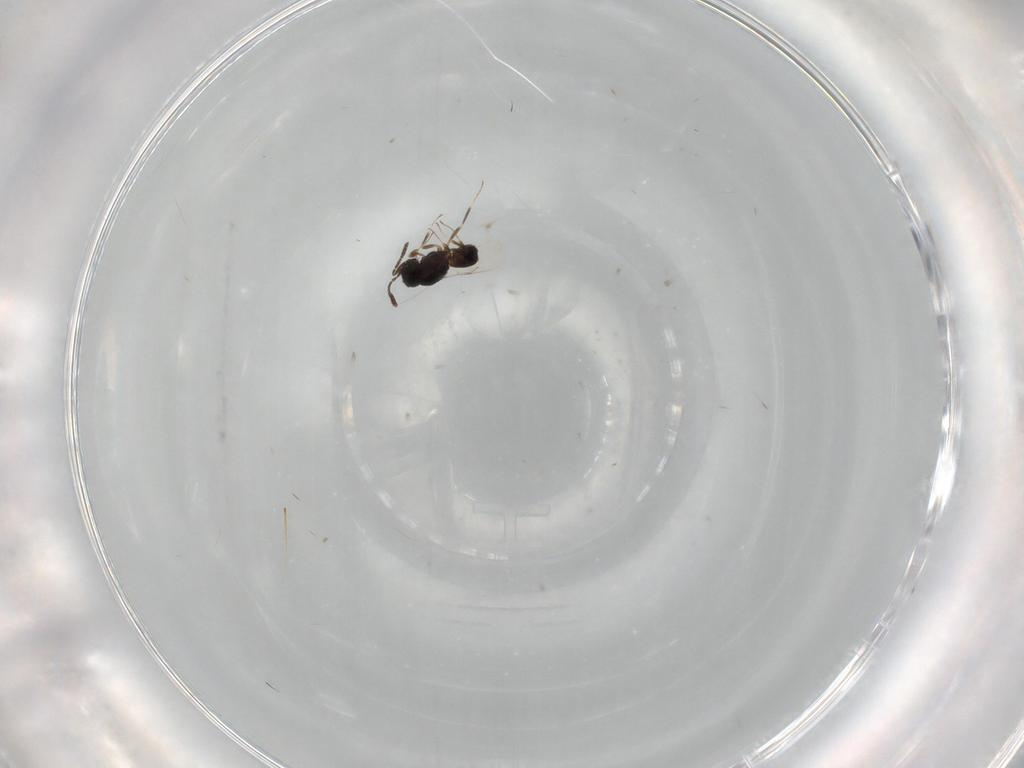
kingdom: Animalia
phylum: Arthropoda
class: Insecta
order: Hymenoptera
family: Scelionidae
